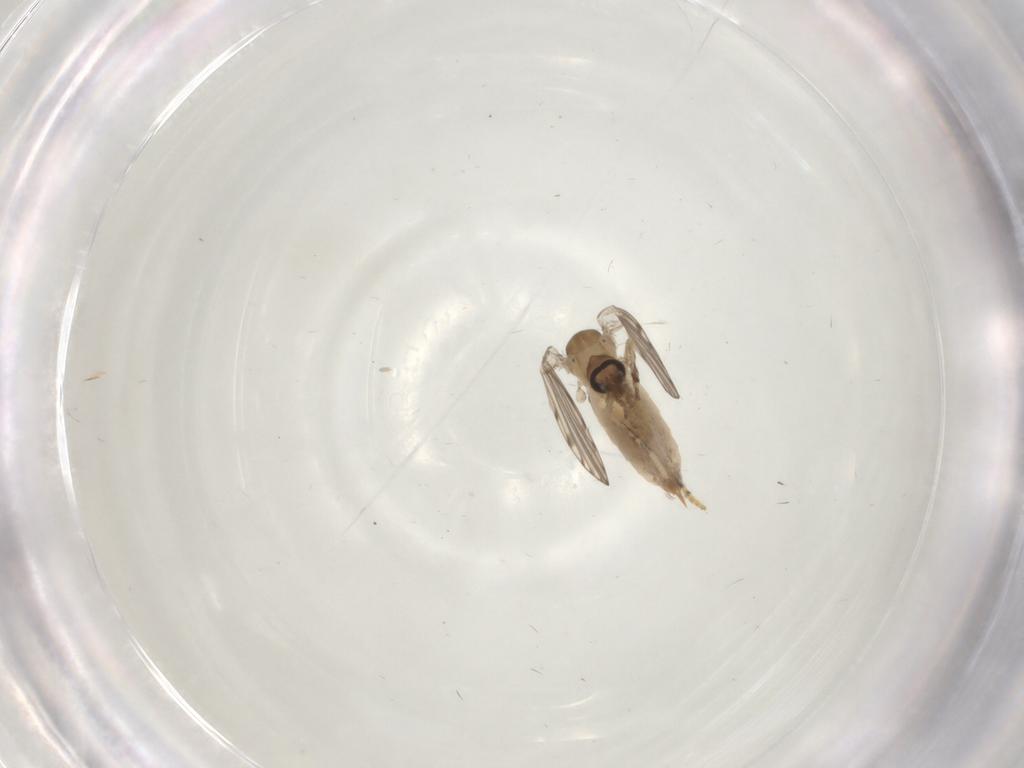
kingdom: Animalia
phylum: Arthropoda
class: Insecta
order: Diptera
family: Psychodidae
